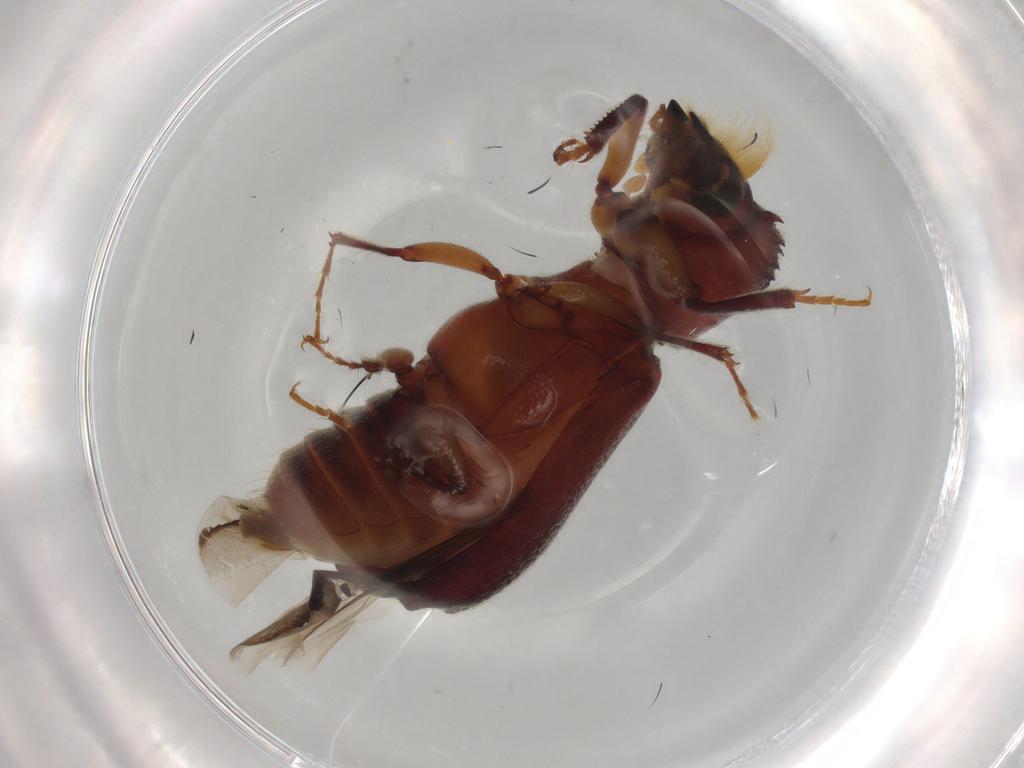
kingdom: Animalia
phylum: Arthropoda
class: Insecta
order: Coleoptera
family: Bostrichidae
